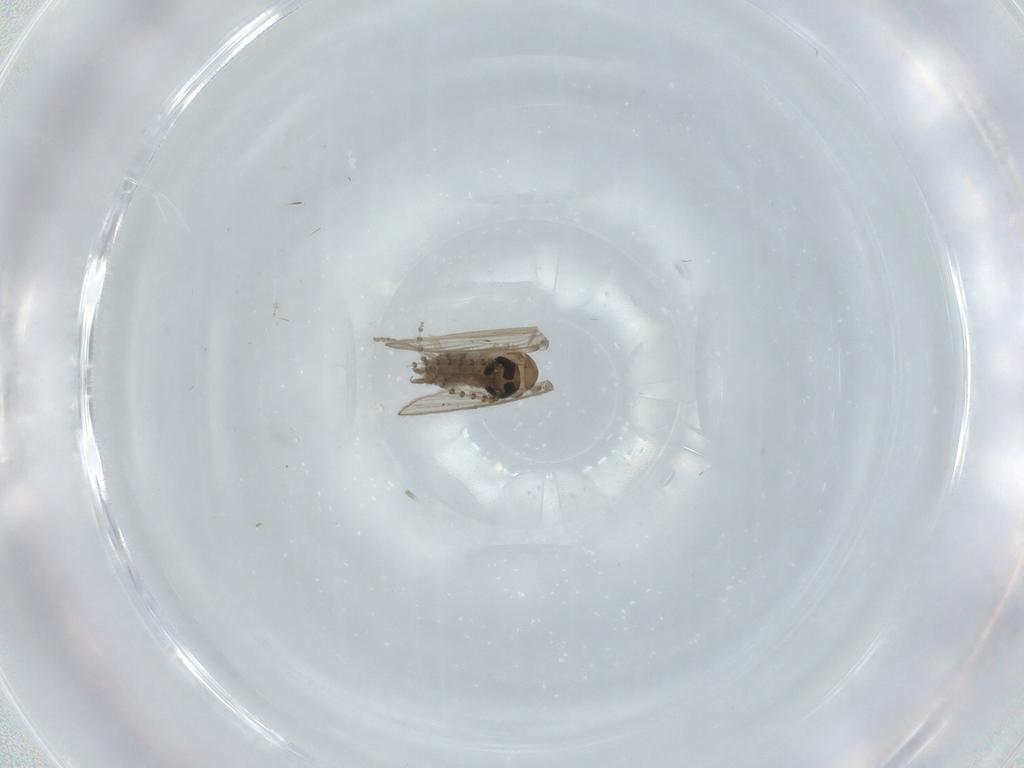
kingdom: Animalia
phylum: Arthropoda
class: Insecta
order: Diptera
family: Psychodidae
